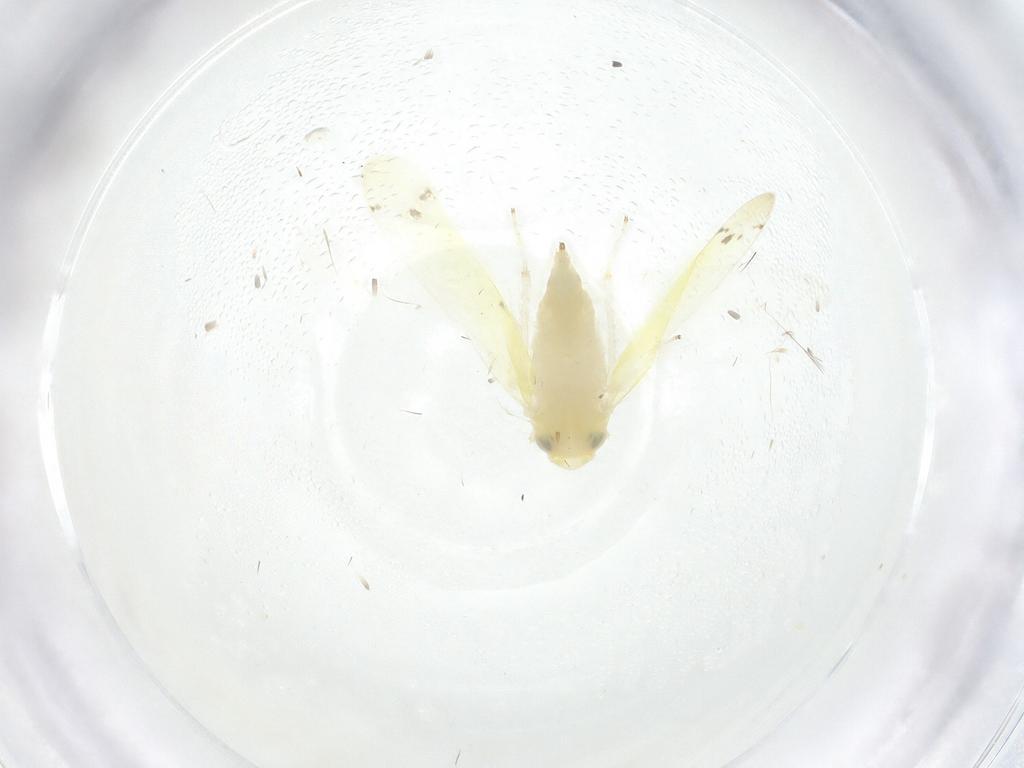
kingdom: Animalia
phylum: Arthropoda
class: Insecta
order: Hemiptera
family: Cicadellidae
